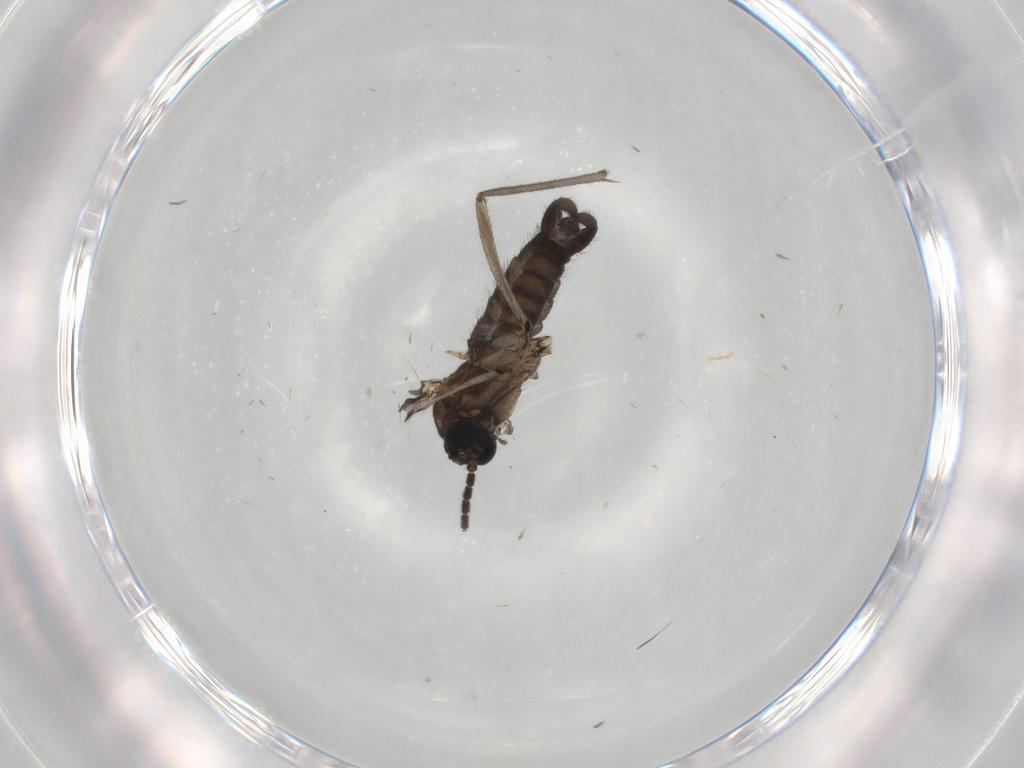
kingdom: Animalia
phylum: Arthropoda
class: Insecta
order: Diptera
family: Sciaridae
